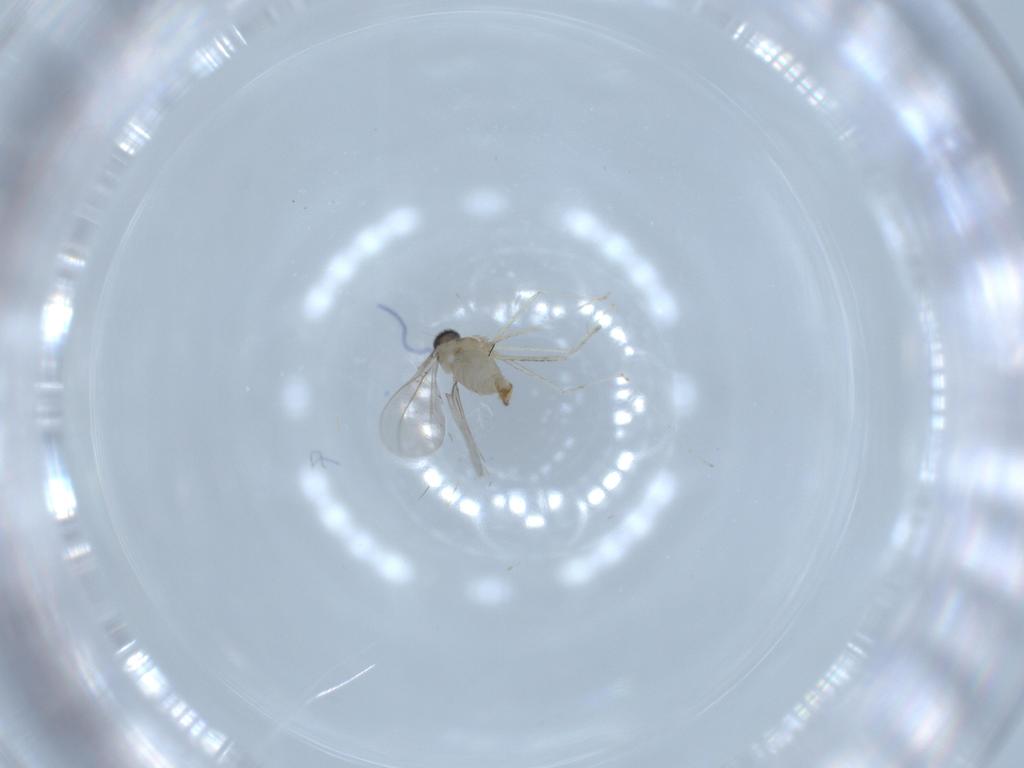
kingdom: Animalia
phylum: Arthropoda
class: Insecta
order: Diptera
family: Cecidomyiidae
